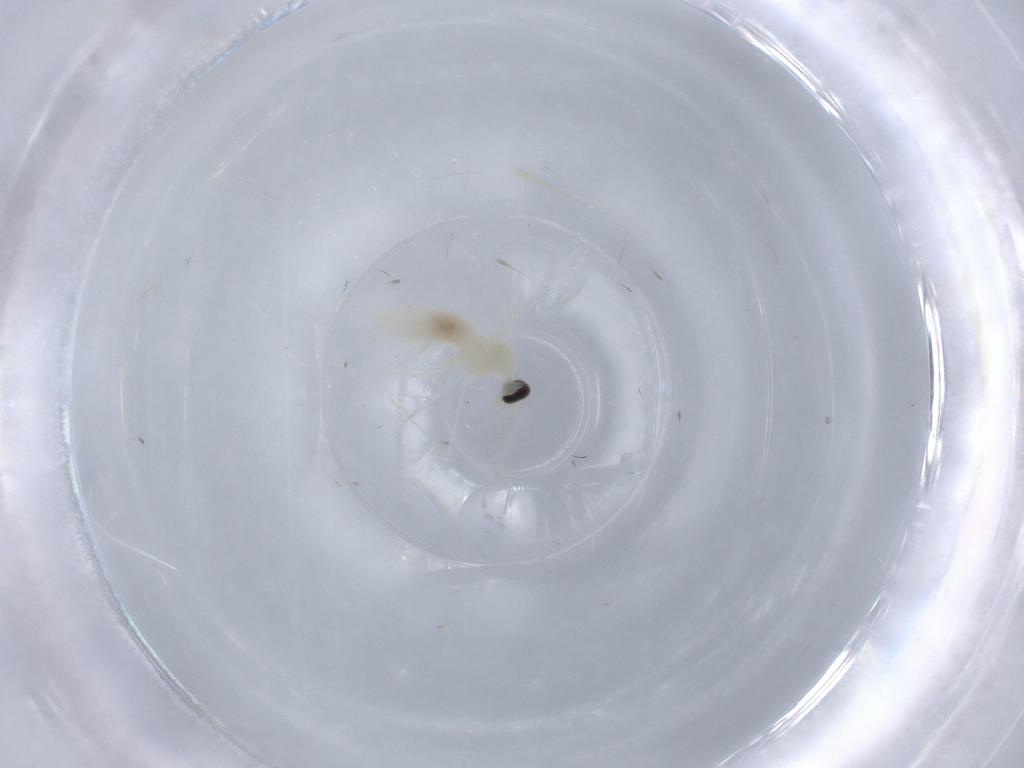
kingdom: Animalia
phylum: Arthropoda
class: Insecta
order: Diptera
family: Cecidomyiidae
